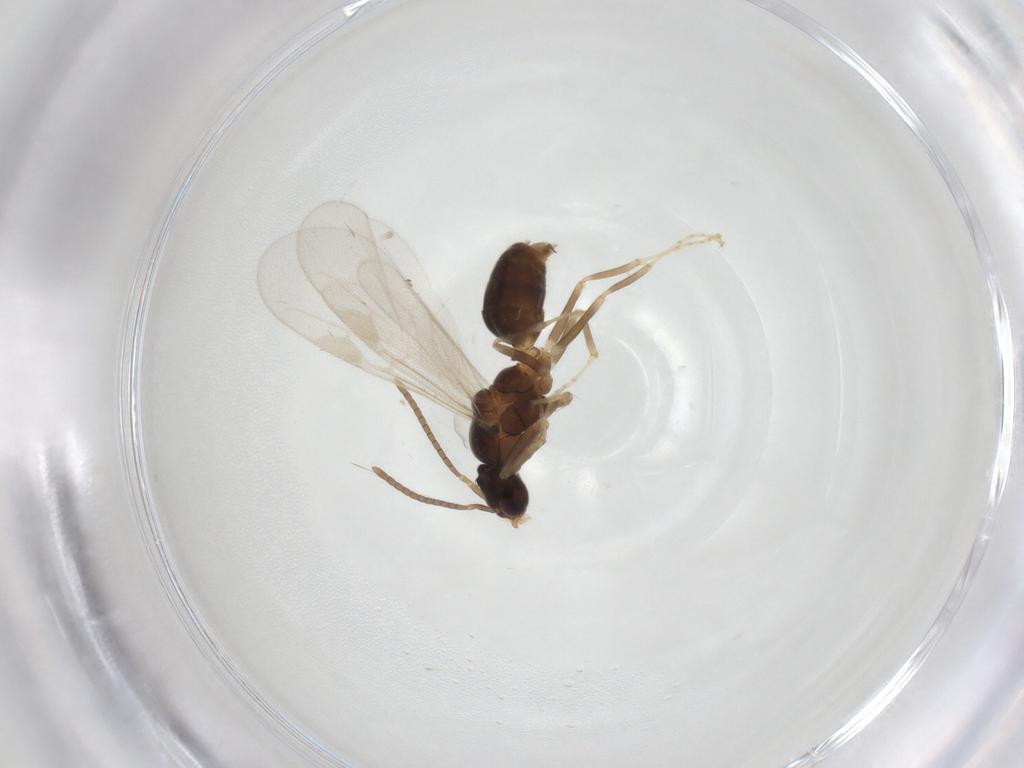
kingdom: Animalia
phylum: Arthropoda
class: Insecta
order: Hymenoptera
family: Formicidae
